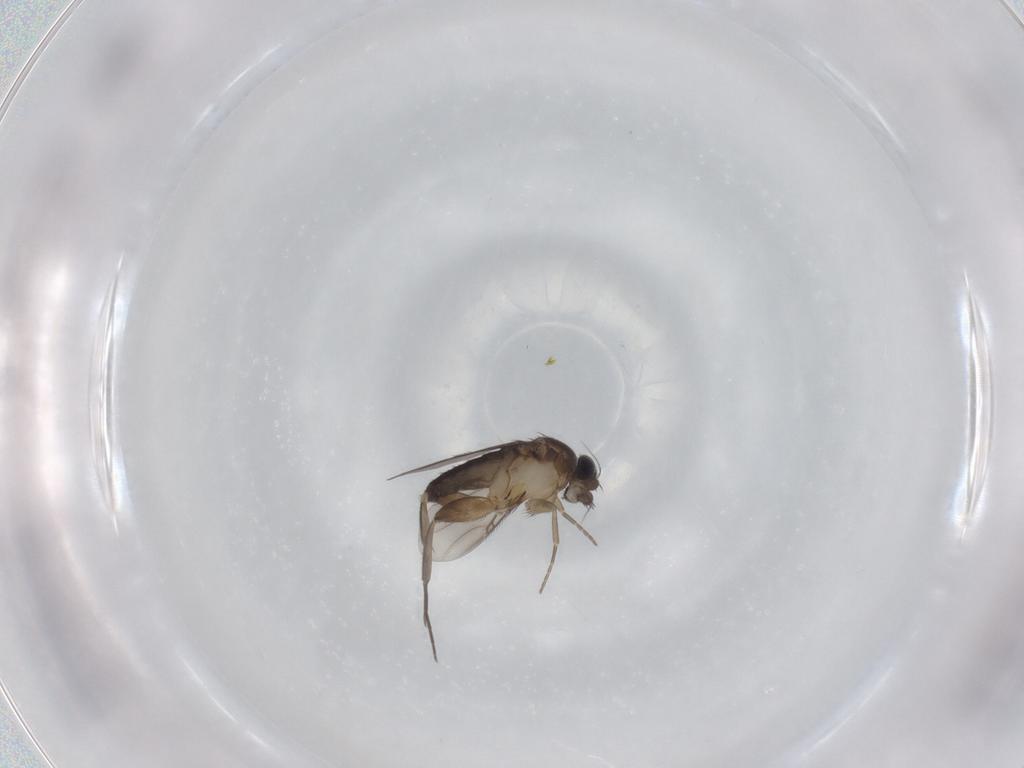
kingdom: Animalia
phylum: Arthropoda
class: Insecta
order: Diptera
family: Phoridae
